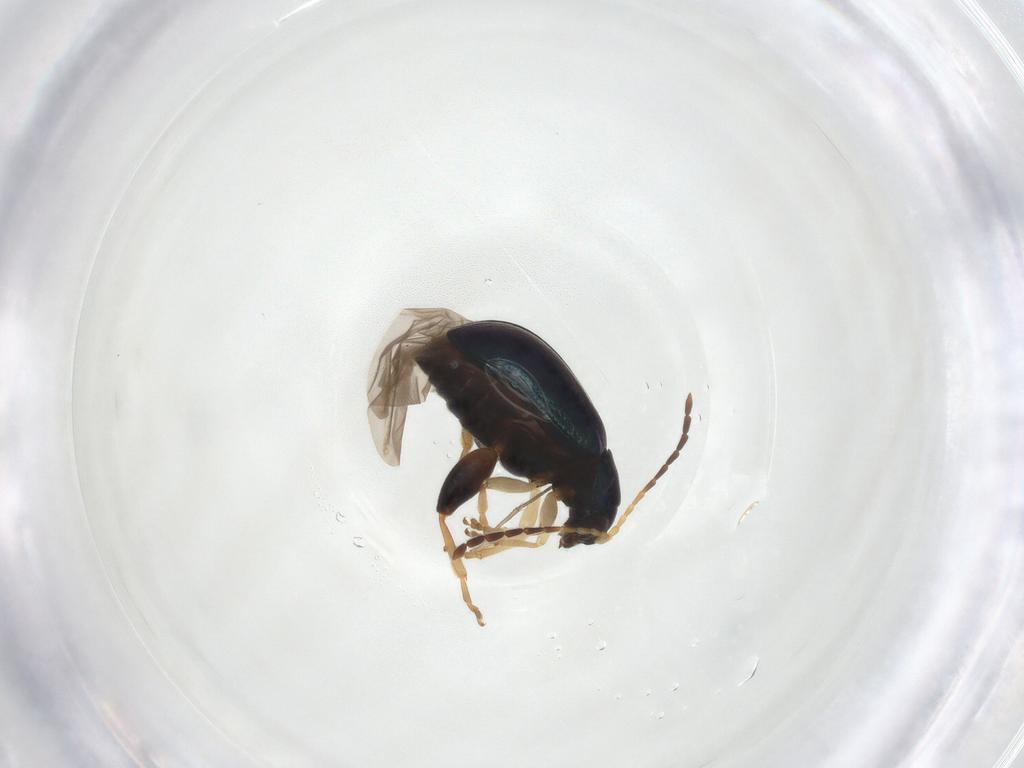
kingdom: Animalia
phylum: Arthropoda
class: Insecta
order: Coleoptera
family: Chrysomelidae
